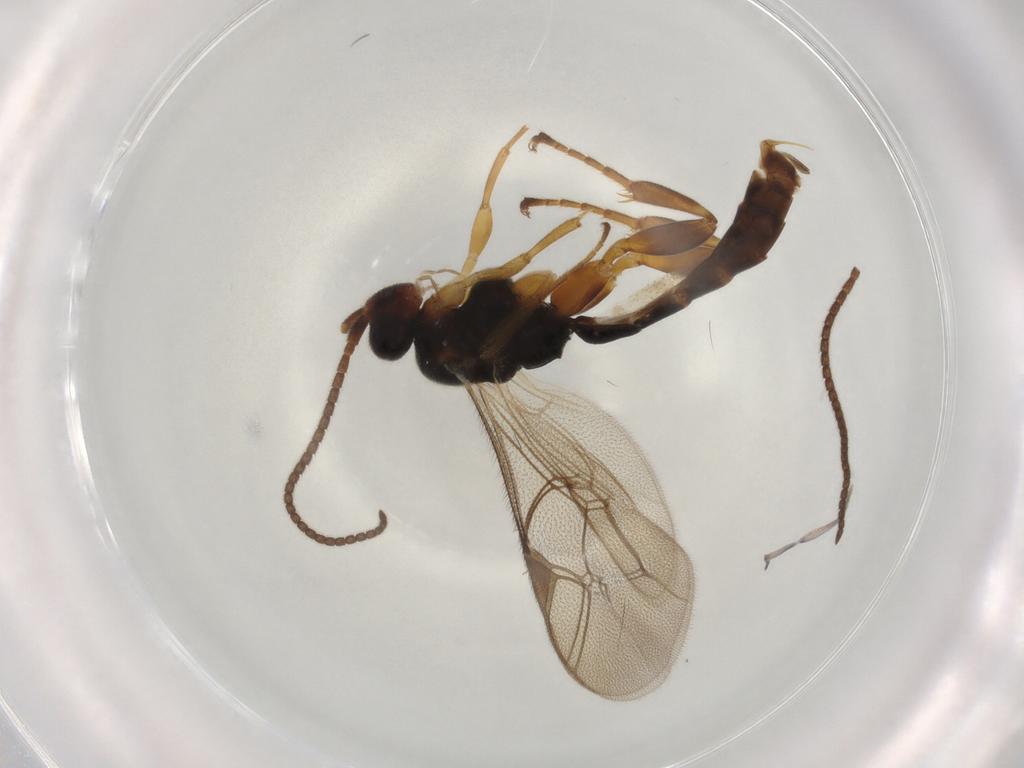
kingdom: Animalia
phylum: Arthropoda
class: Insecta
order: Hymenoptera
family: Ichneumonidae
